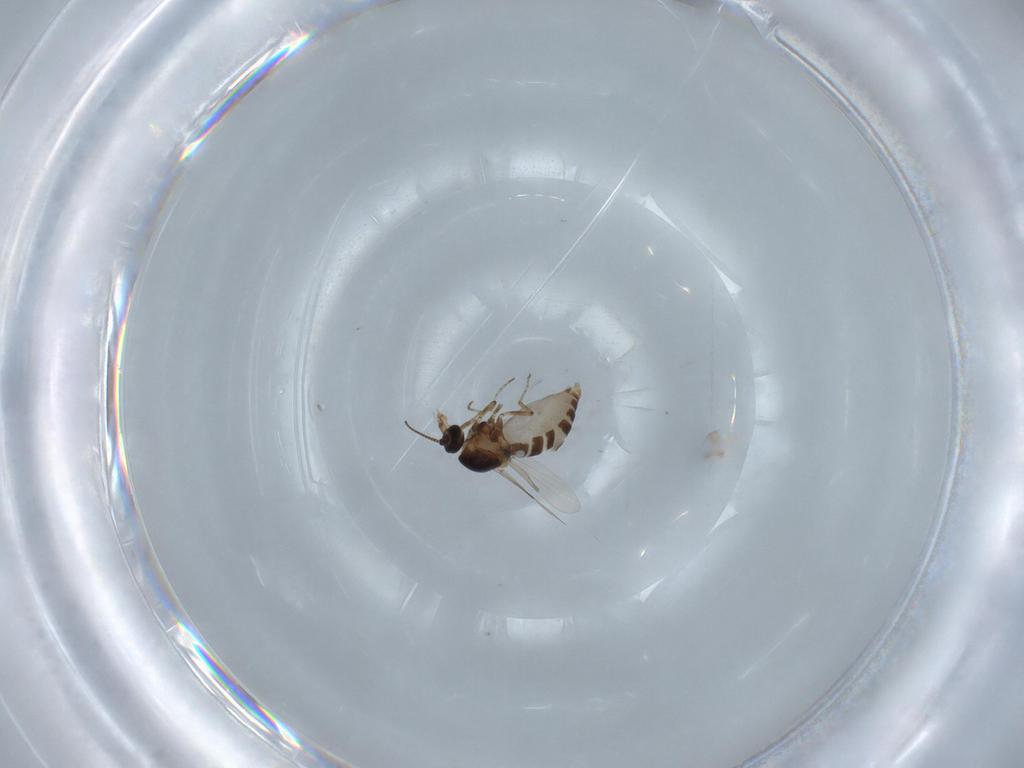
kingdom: Animalia
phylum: Arthropoda
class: Insecta
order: Diptera
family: Ceratopogonidae
